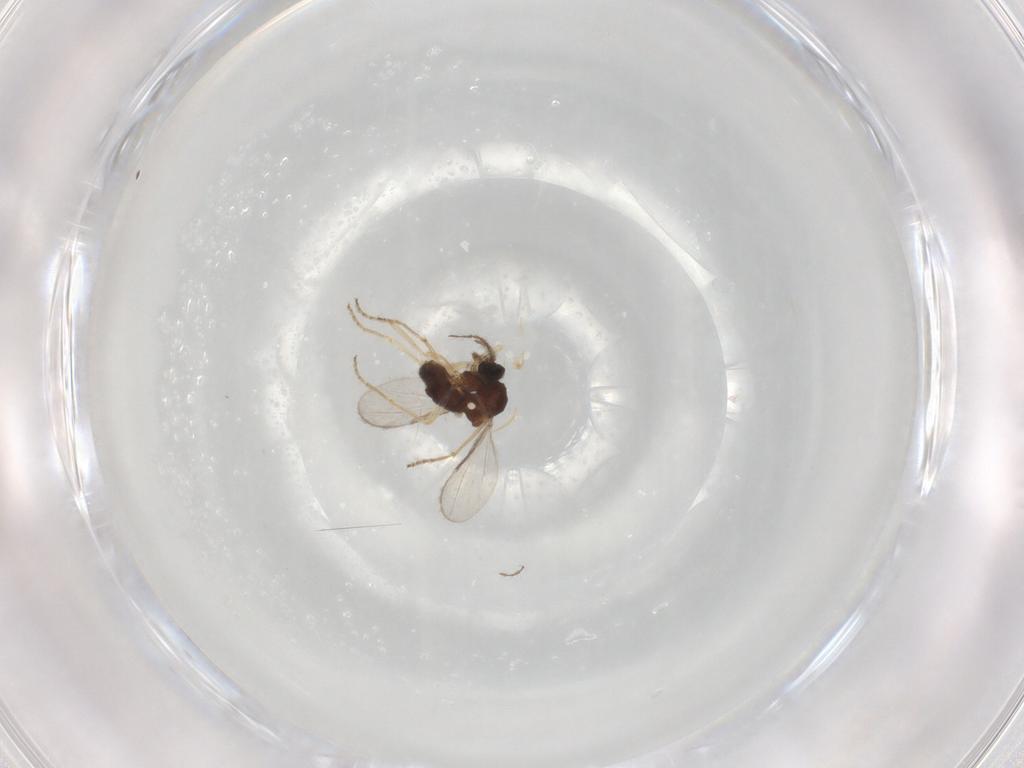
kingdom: Animalia
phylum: Arthropoda
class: Insecta
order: Diptera
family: Ceratopogonidae
